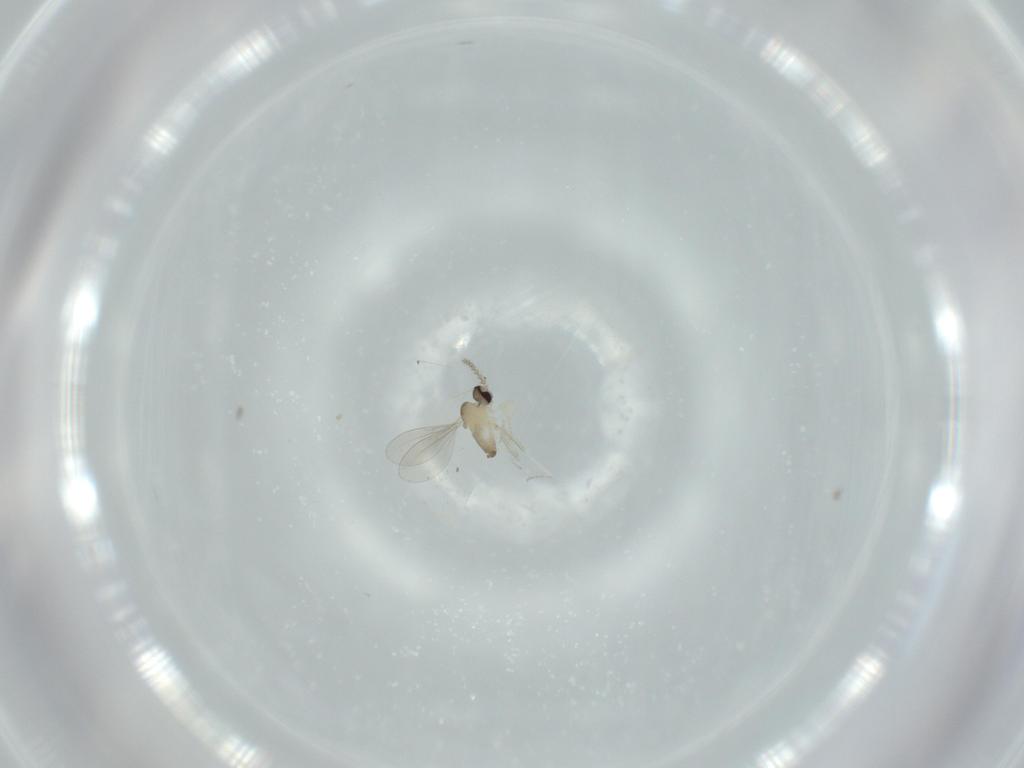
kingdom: Animalia
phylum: Arthropoda
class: Insecta
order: Diptera
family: Cecidomyiidae
